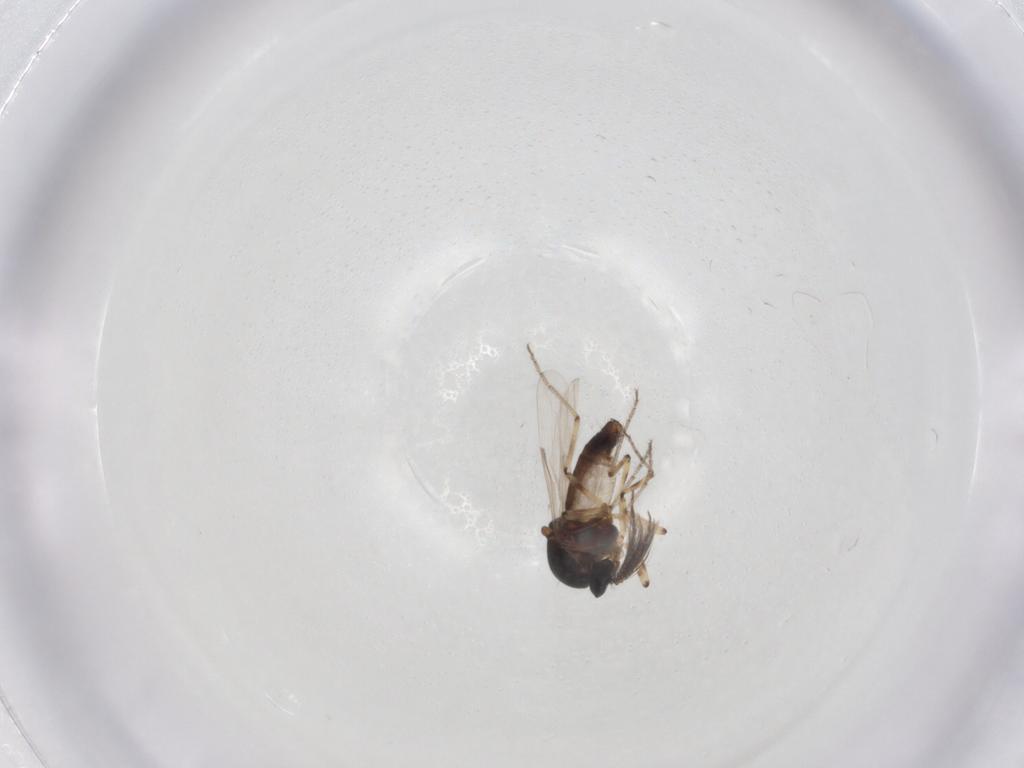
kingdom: Animalia
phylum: Arthropoda
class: Insecta
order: Diptera
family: Ceratopogonidae
